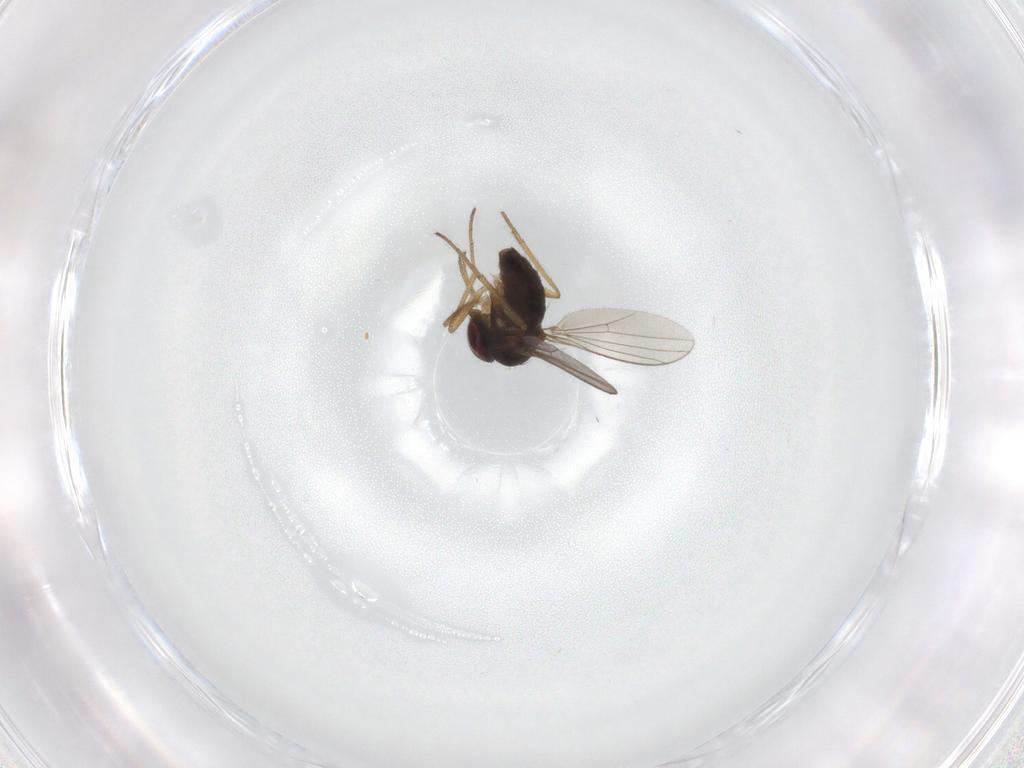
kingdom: Animalia
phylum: Arthropoda
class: Insecta
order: Diptera
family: Dolichopodidae
